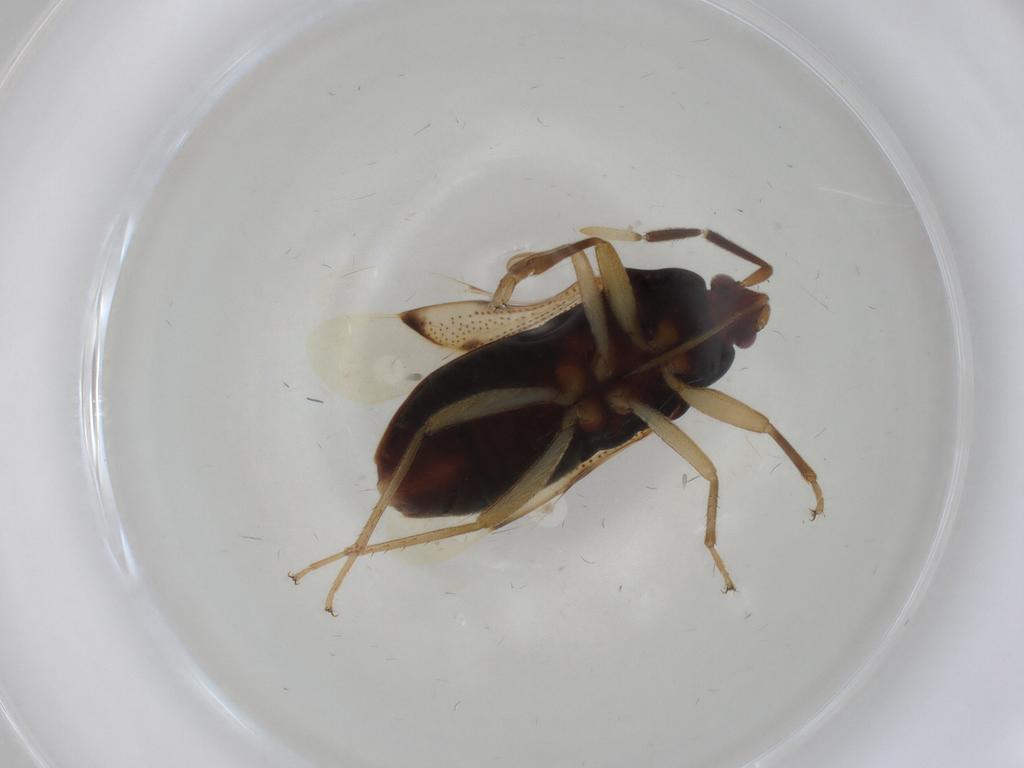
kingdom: Animalia
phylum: Arthropoda
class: Insecta
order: Hemiptera
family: Rhyparochromidae
